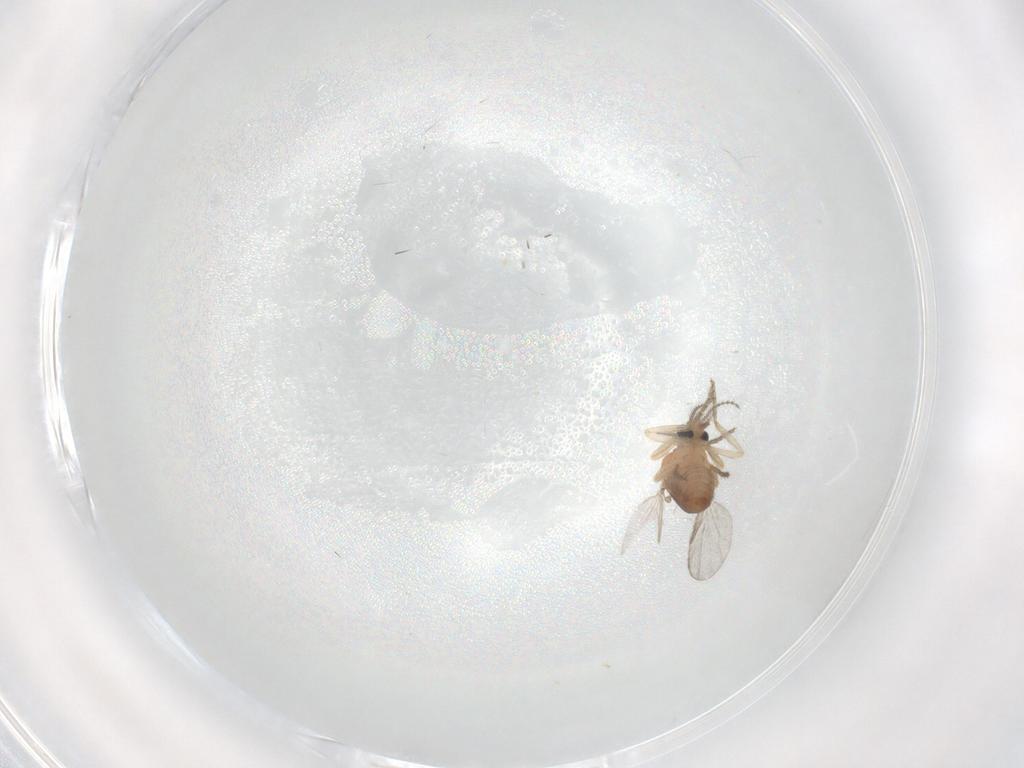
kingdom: Animalia
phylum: Arthropoda
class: Insecta
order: Diptera
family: Ceratopogonidae
